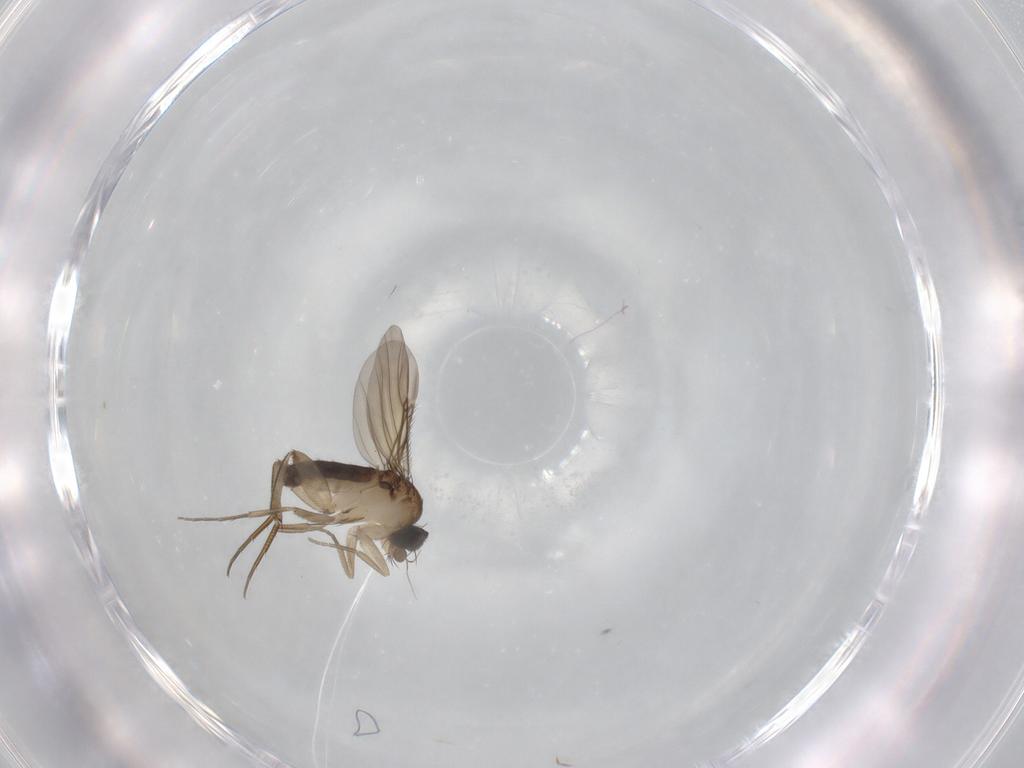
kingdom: Animalia
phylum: Arthropoda
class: Insecta
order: Diptera
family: Phoridae
